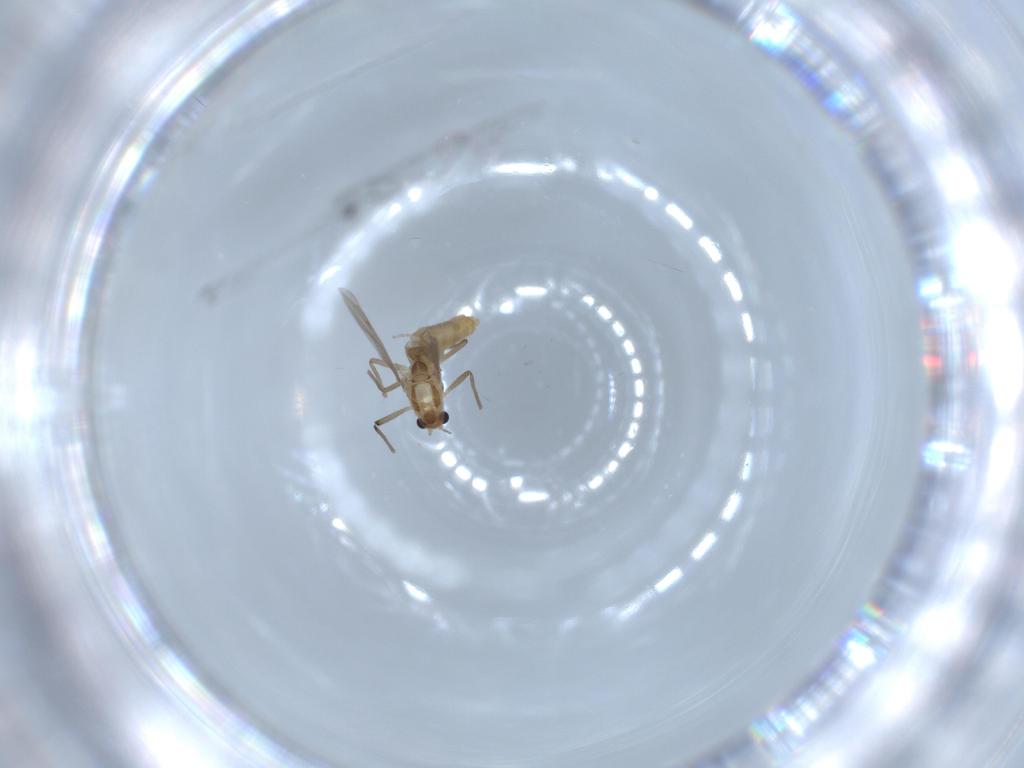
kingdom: Animalia
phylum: Arthropoda
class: Insecta
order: Diptera
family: Chironomidae
